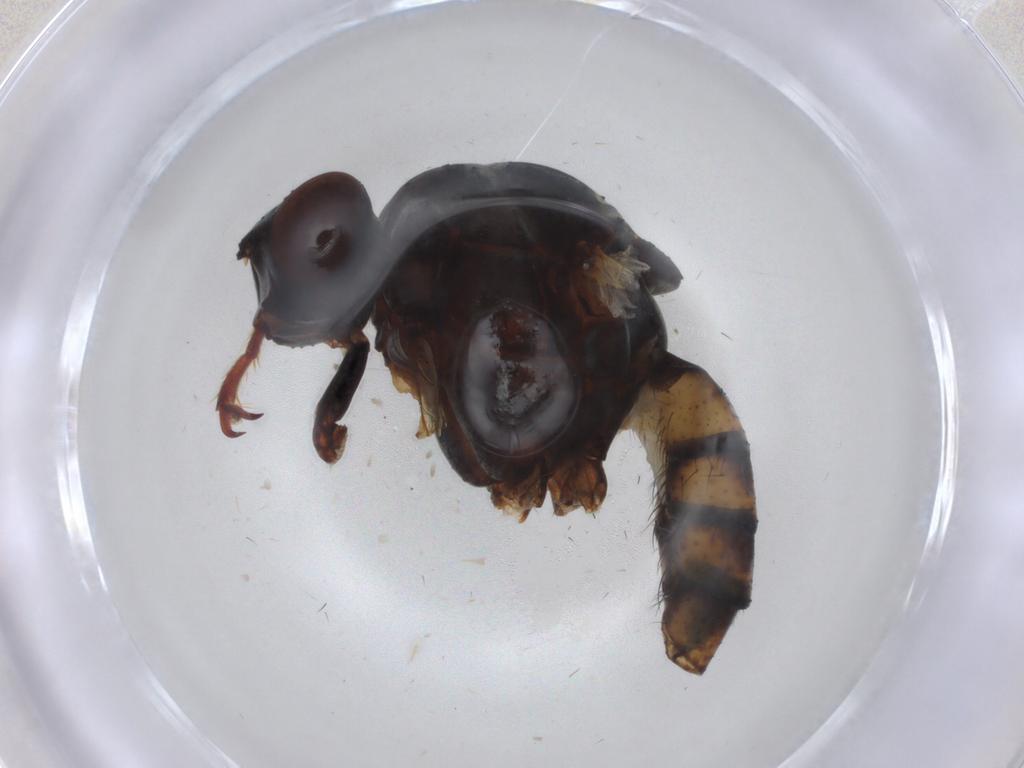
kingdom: Animalia
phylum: Arthropoda
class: Insecta
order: Diptera
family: Anthomyiidae
